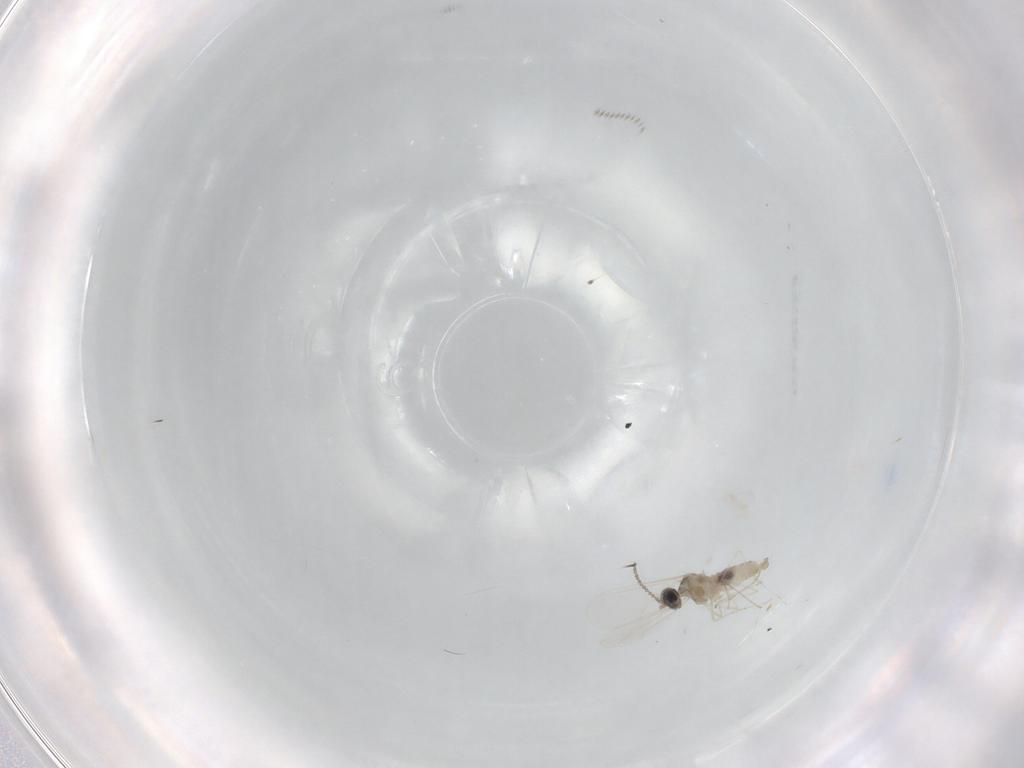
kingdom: Animalia
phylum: Arthropoda
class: Insecta
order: Diptera
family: Cecidomyiidae
